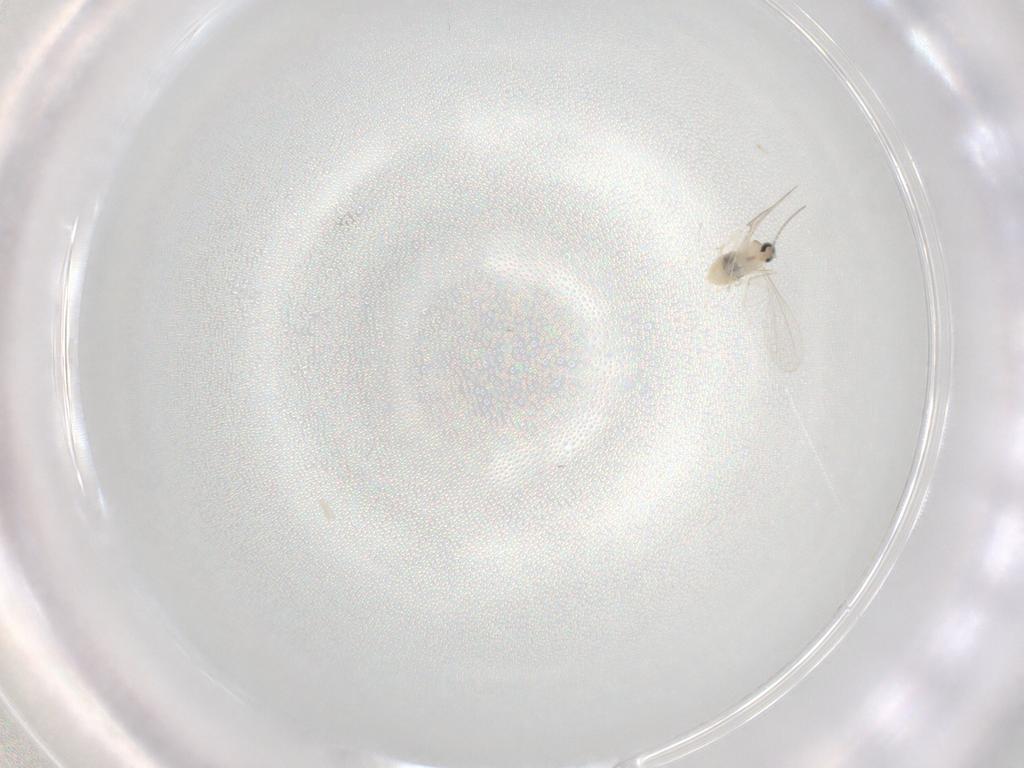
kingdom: Animalia
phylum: Arthropoda
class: Insecta
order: Diptera
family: Cecidomyiidae
